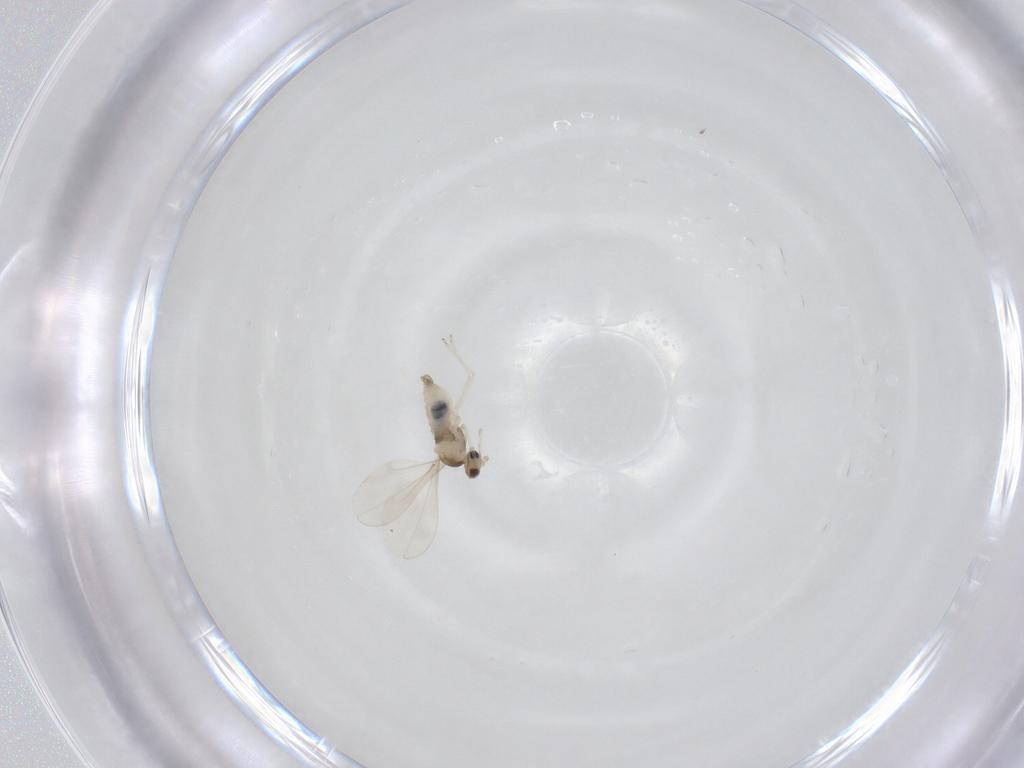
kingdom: Animalia
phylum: Arthropoda
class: Insecta
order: Diptera
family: Cecidomyiidae
